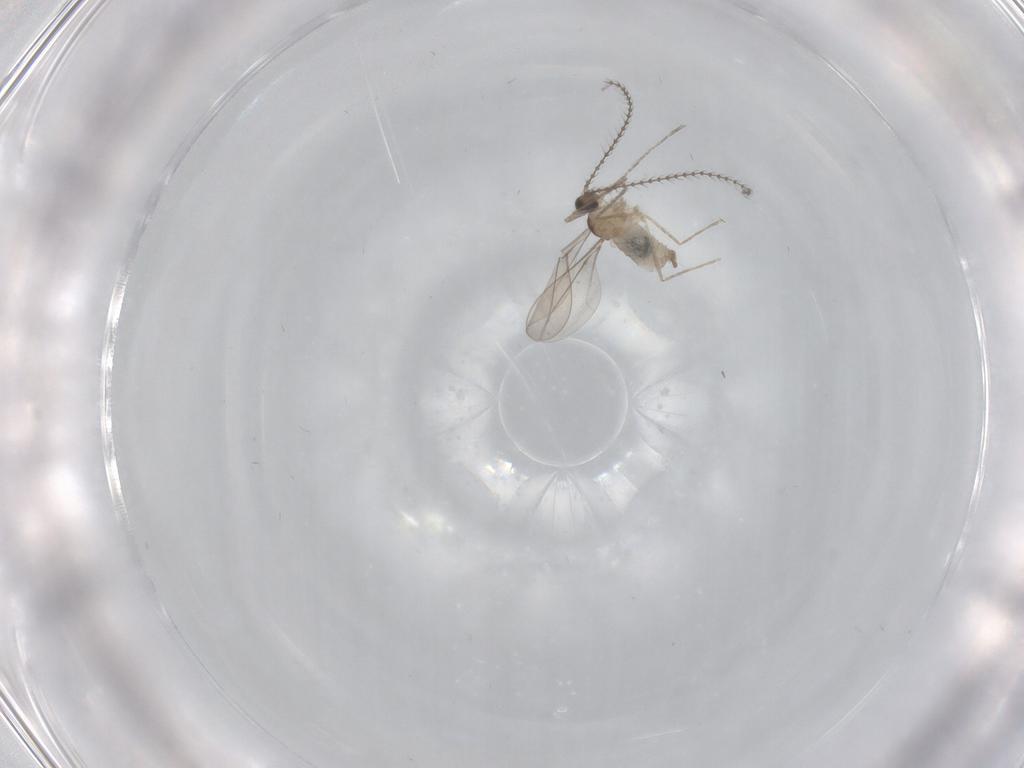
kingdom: Animalia
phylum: Arthropoda
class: Insecta
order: Diptera
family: Cecidomyiidae
